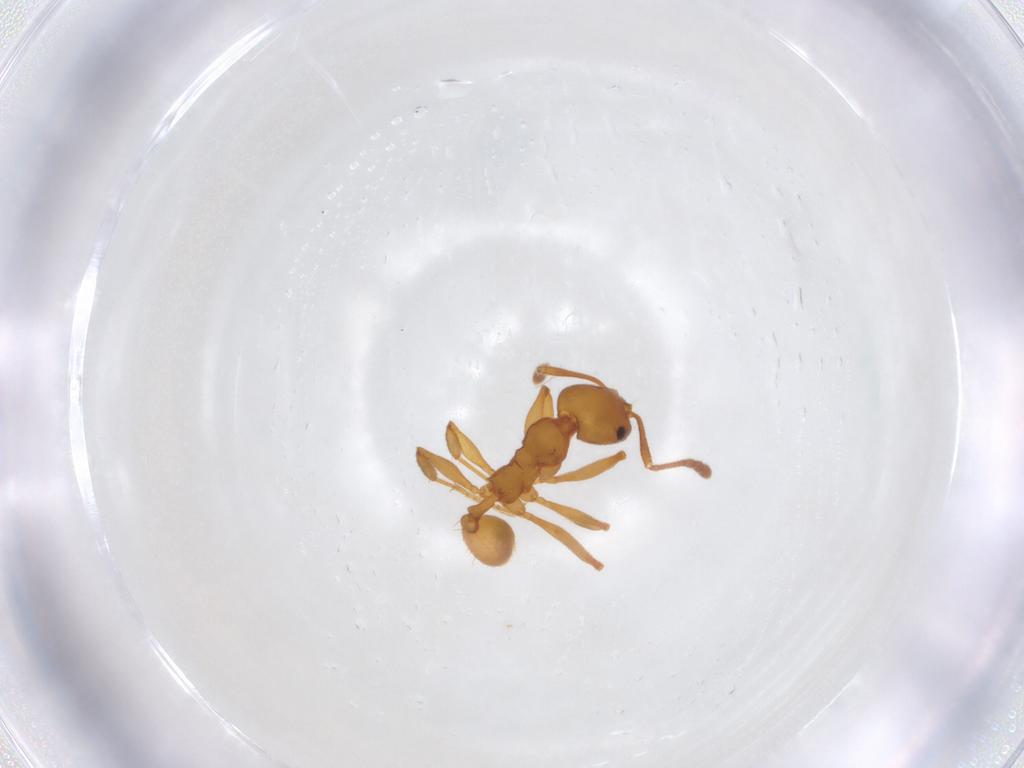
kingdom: Animalia
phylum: Arthropoda
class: Insecta
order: Hymenoptera
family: Formicidae
